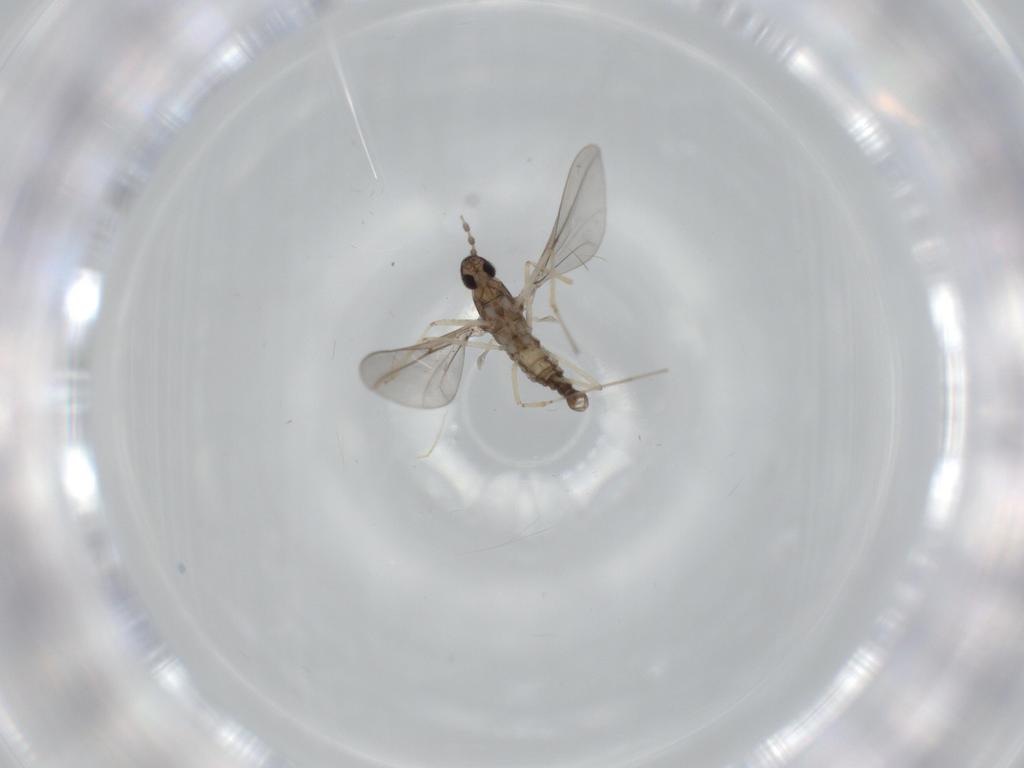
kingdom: Animalia
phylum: Arthropoda
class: Insecta
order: Diptera
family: Cecidomyiidae
